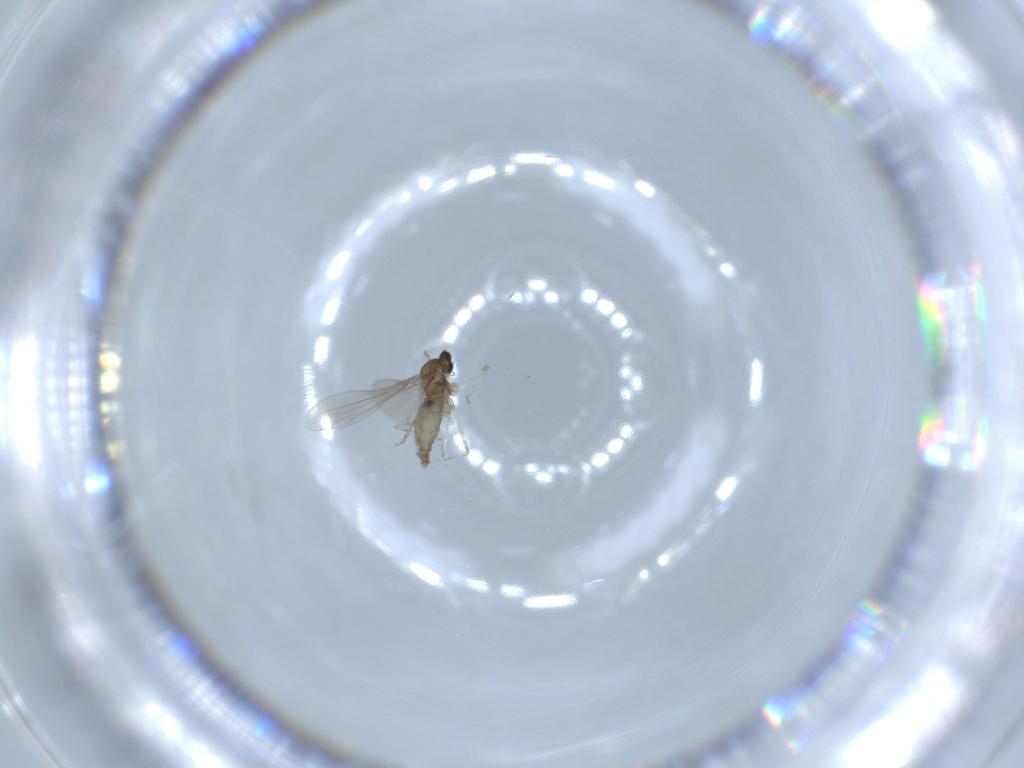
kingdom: Animalia
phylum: Arthropoda
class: Insecta
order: Diptera
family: Sciaridae
